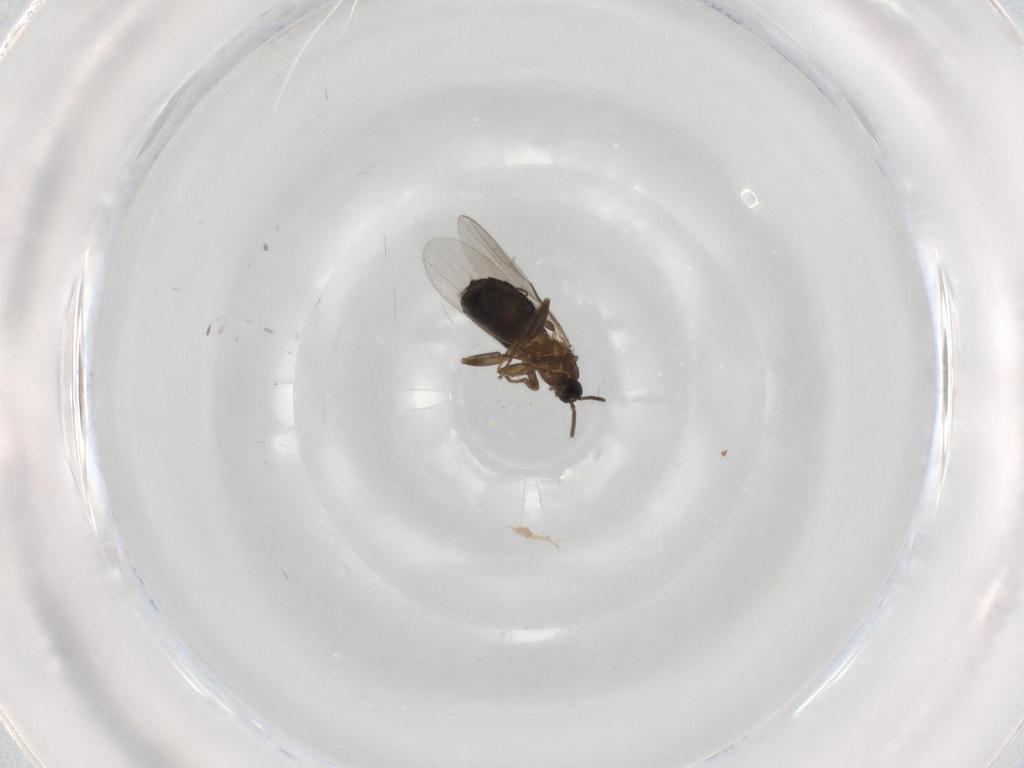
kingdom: Animalia
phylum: Arthropoda
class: Insecta
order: Diptera
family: Scatopsidae
